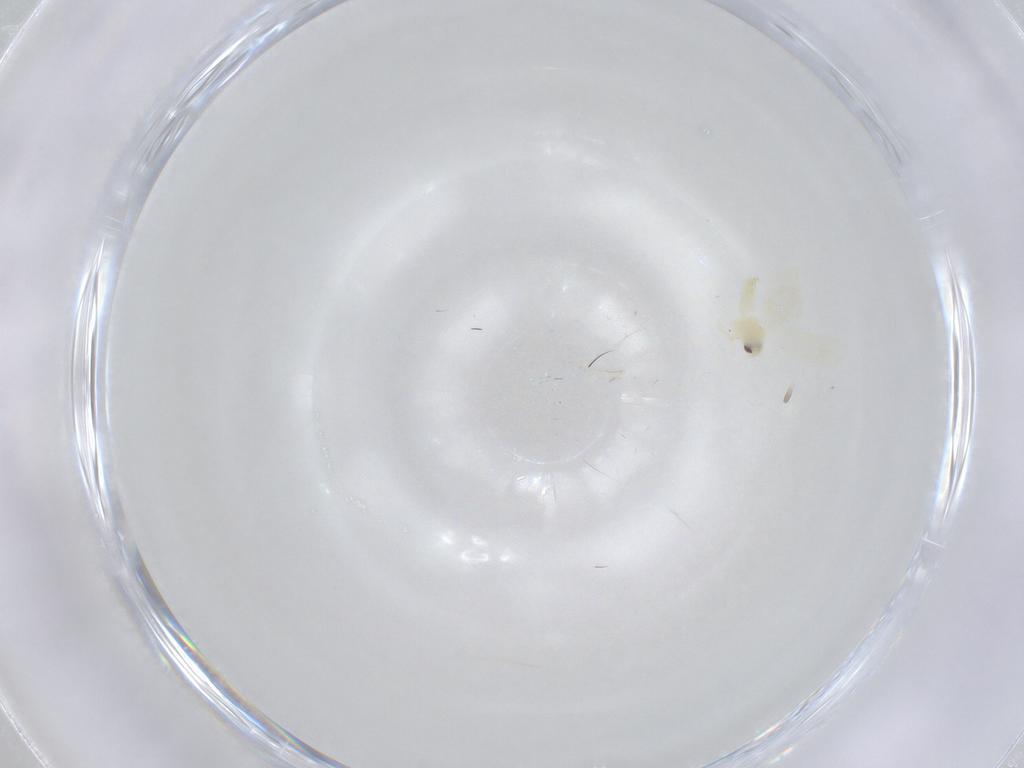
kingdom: Animalia
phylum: Arthropoda
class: Insecta
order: Hemiptera
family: Aleyrodidae
